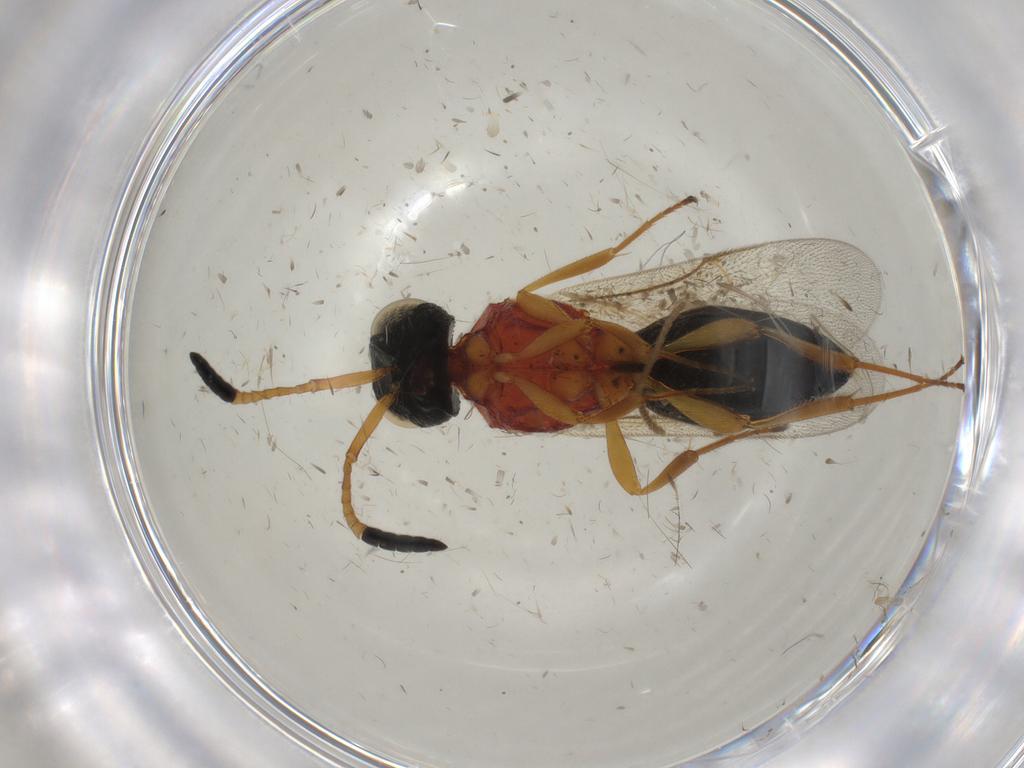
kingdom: Animalia
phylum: Arthropoda
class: Insecta
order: Hymenoptera
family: Scelionidae
